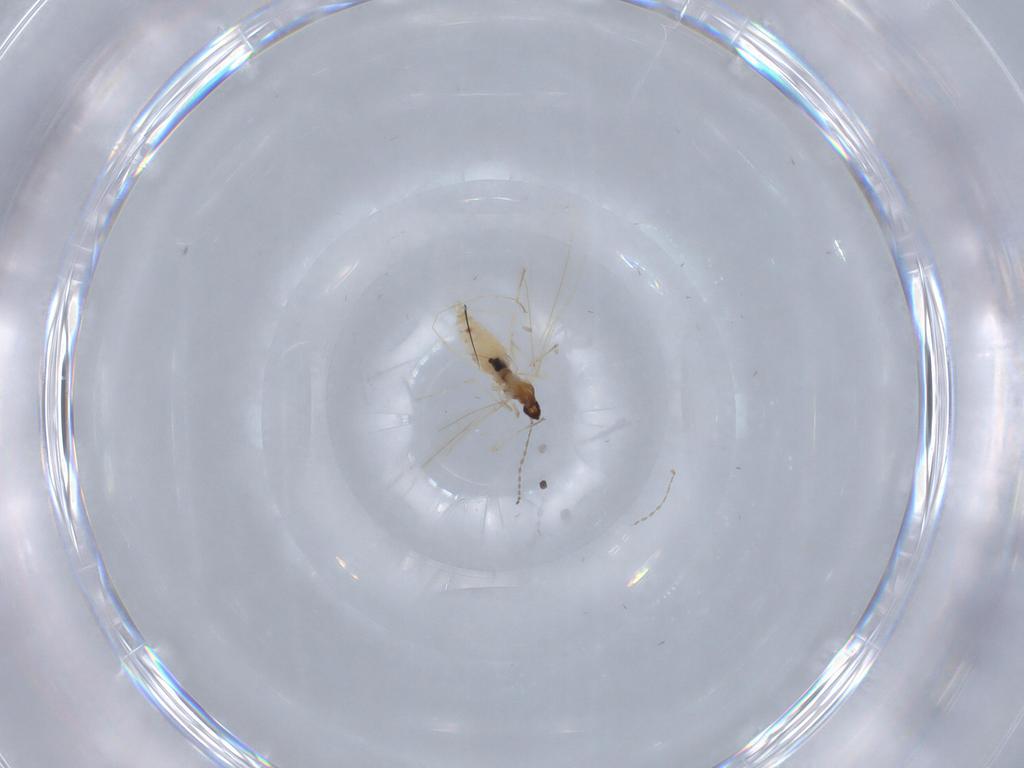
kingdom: Animalia
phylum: Arthropoda
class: Insecta
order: Diptera
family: Cecidomyiidae
